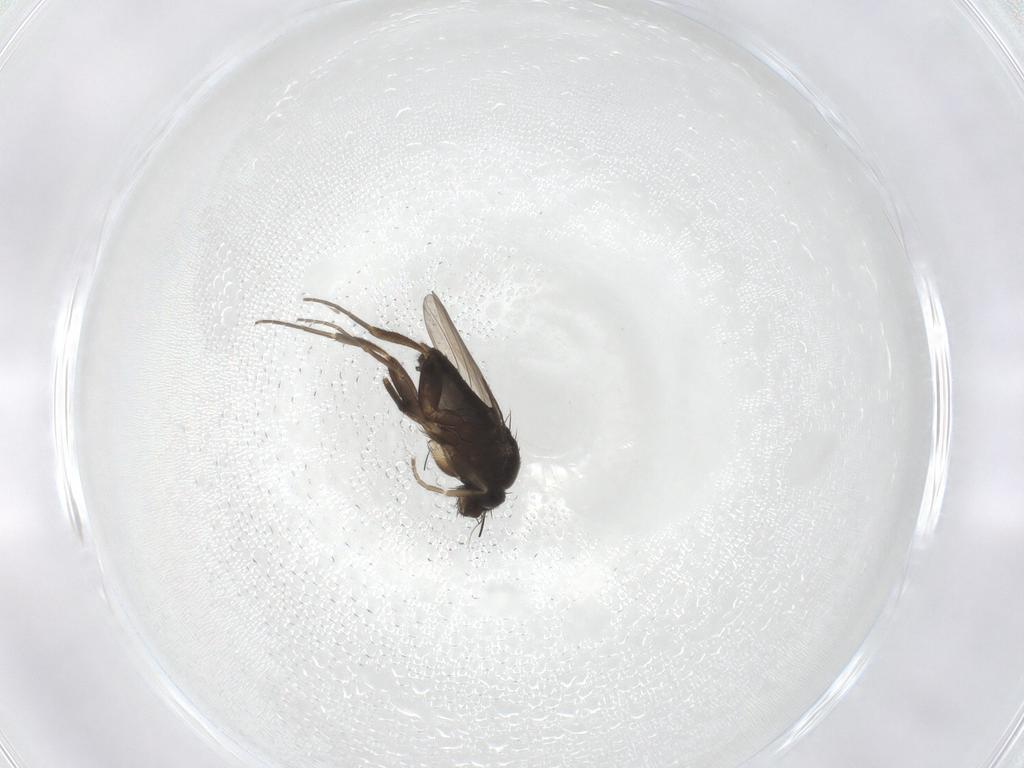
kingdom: Animalia
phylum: Arthropoda
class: Insecta
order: Diptera
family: Phoridae
